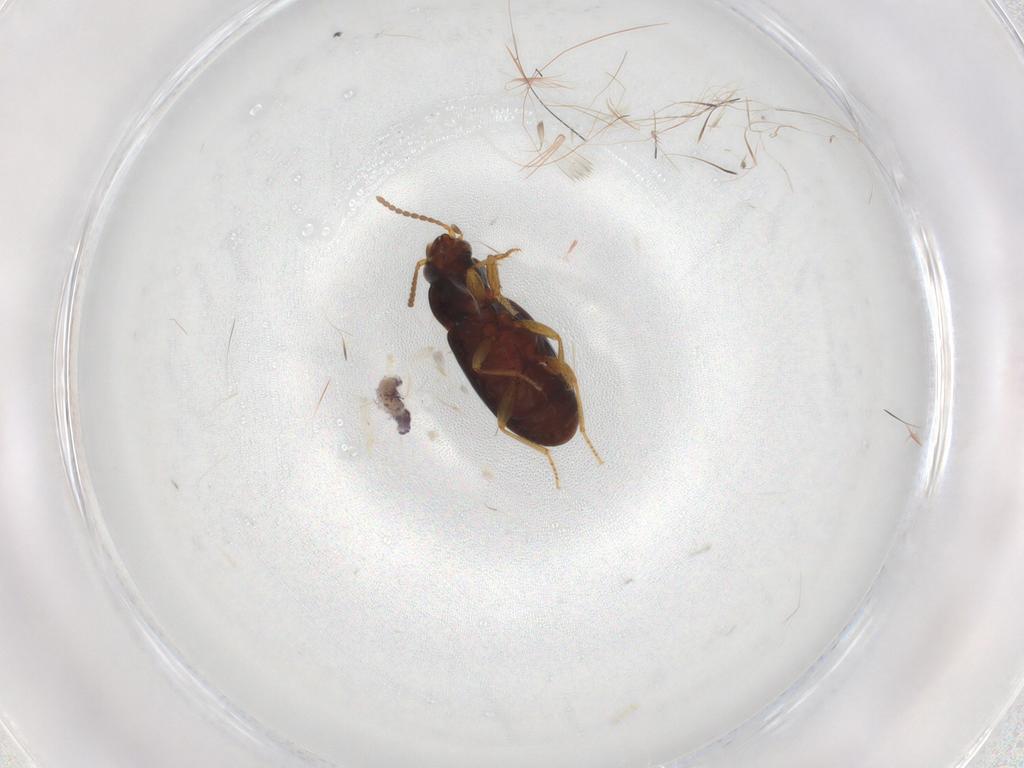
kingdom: Animalia
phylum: Arthropoda
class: Insecta
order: Coleoptera
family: Carabidae
